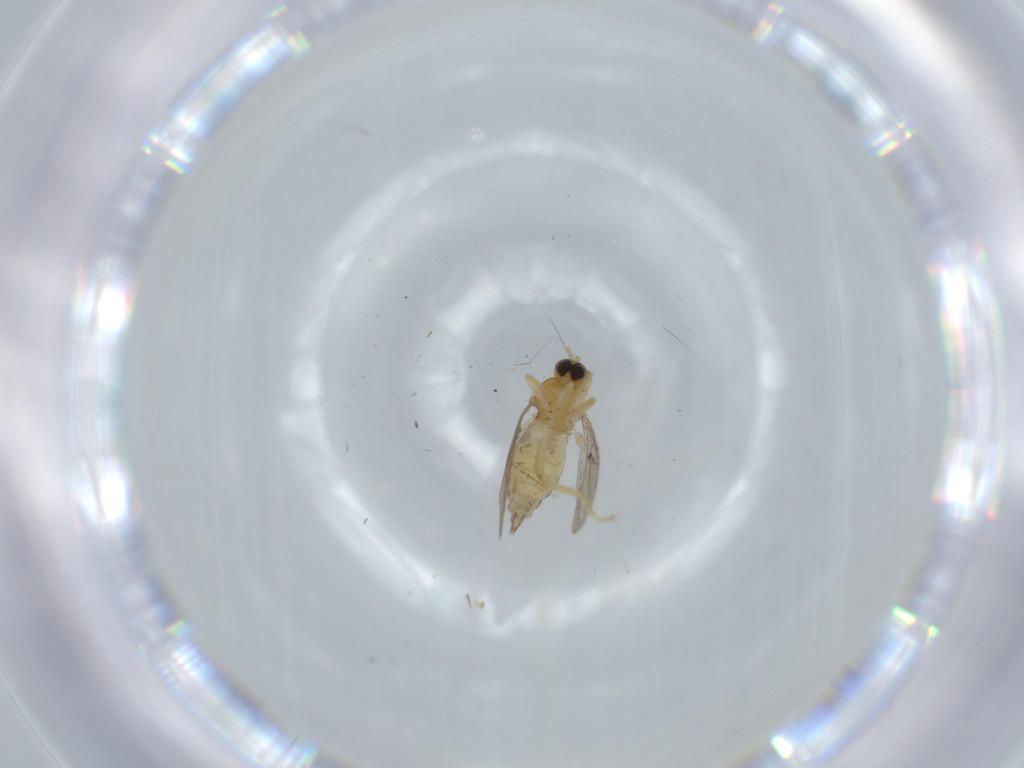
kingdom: Animalia
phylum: Arthropoda
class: Insecta
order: Diptera
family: Hybotidae
